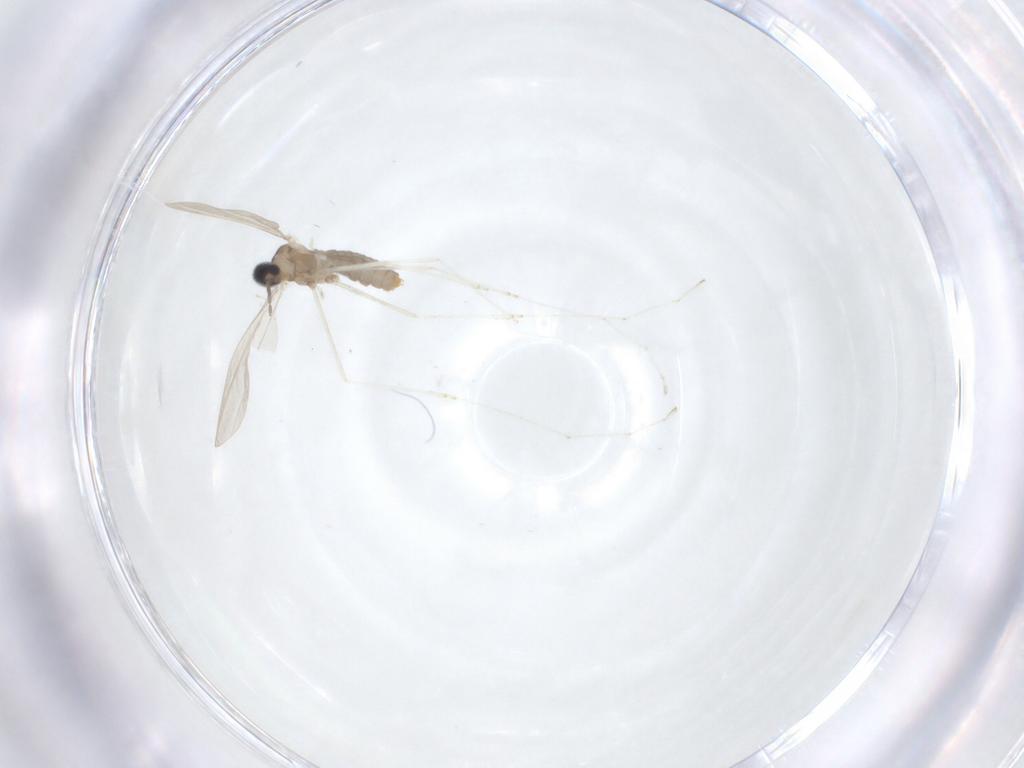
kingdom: Animalia
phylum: Arthropoda
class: Insecta
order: Diptera
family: Cecidomyiidae
